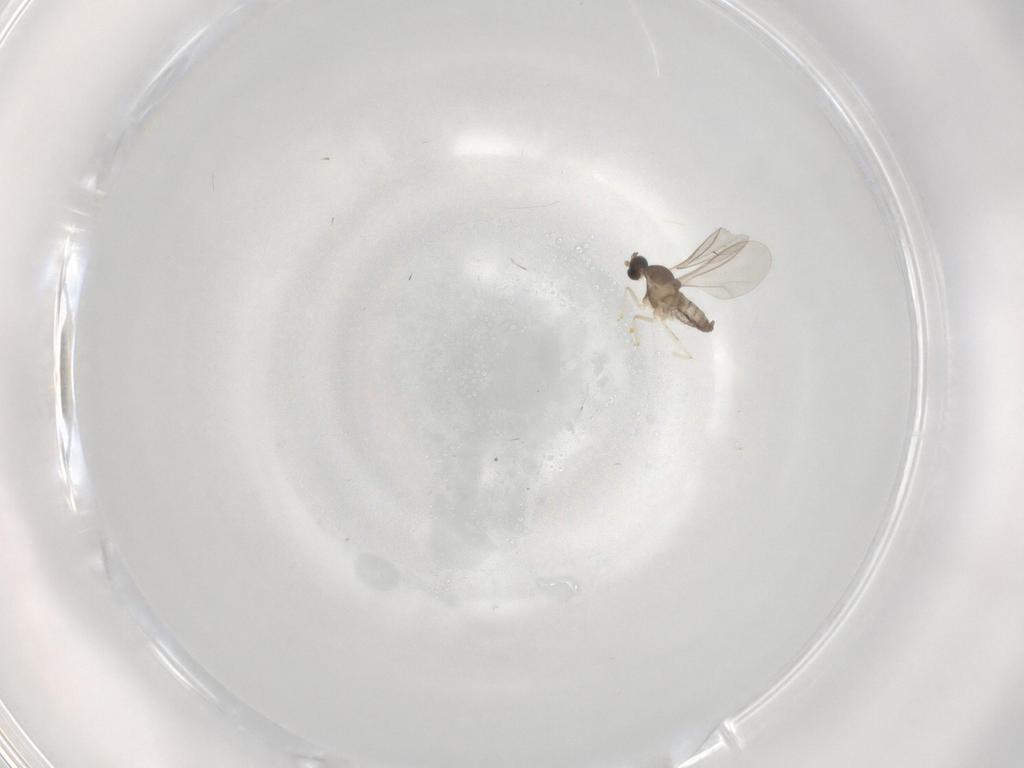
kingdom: Animalia
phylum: Arthropoda
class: Insecta
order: Diptera
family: Cecidomyiidae
